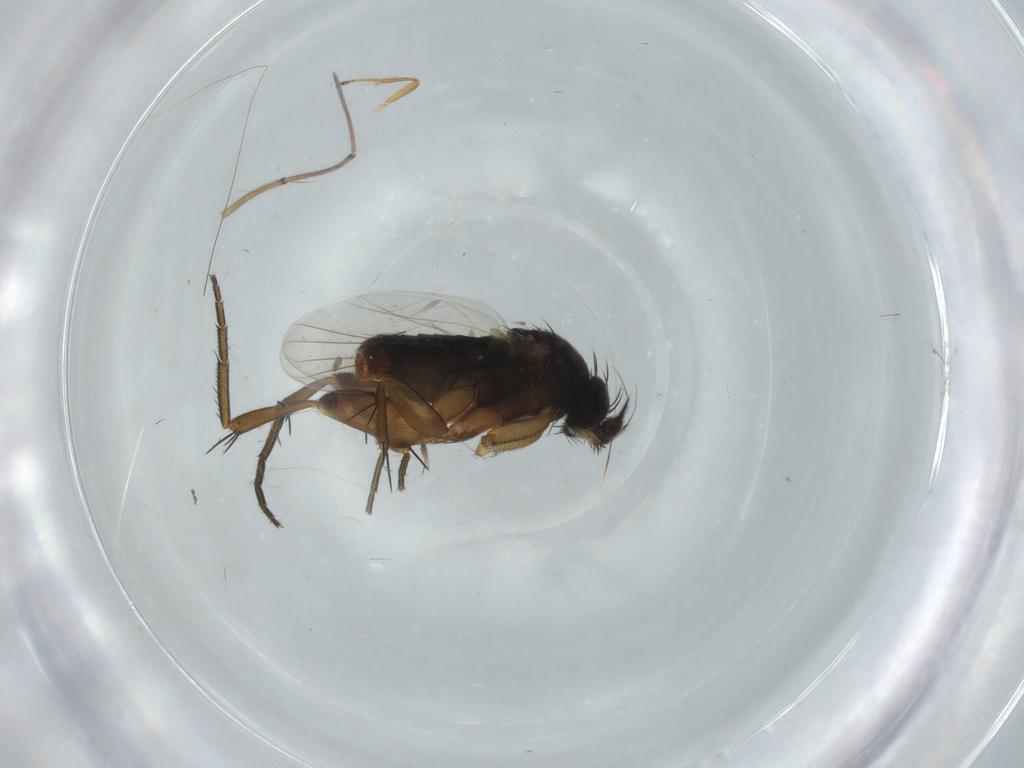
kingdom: Animalia
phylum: Arthropoda
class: Insecta
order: Diptera
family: Phoridae
